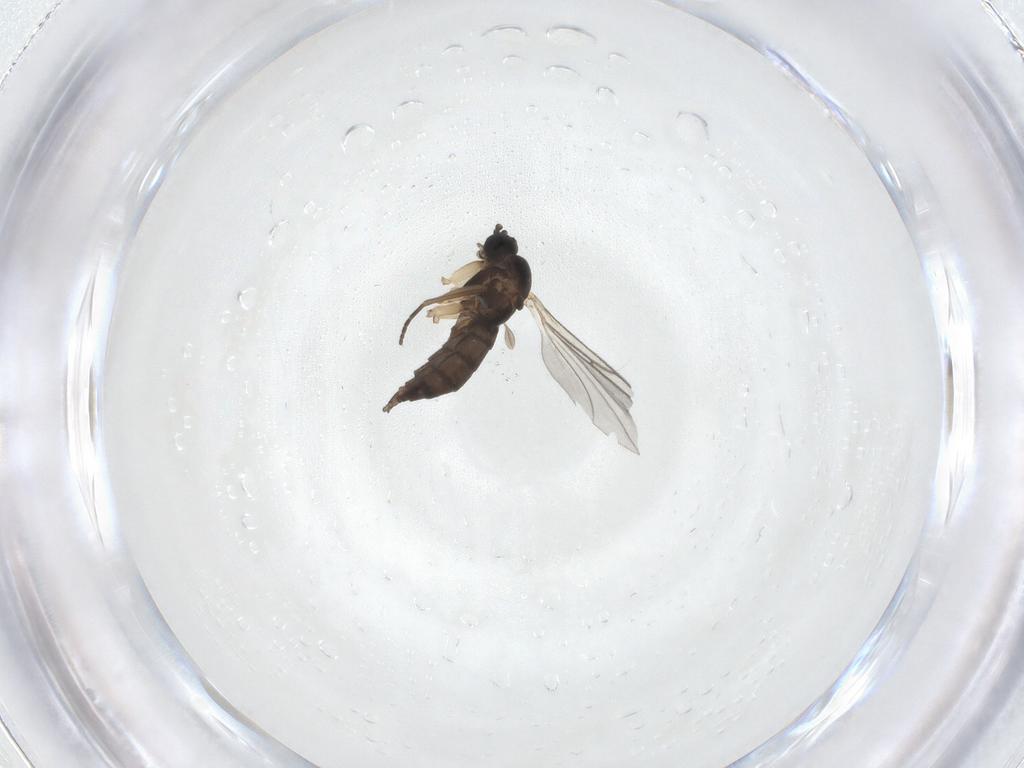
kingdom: Animalia
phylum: Arthropoda
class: Insecta
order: Diptera
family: Sciaridae
